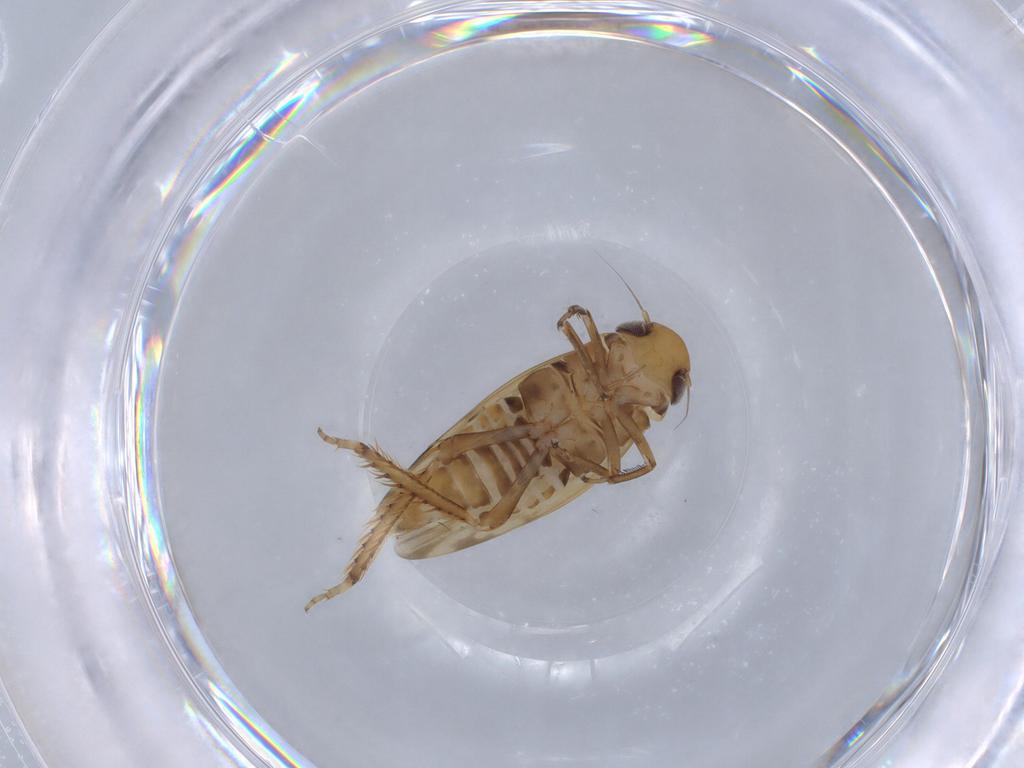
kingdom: Animalia
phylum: Arthropoda
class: Insecta
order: Hemiptera
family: Cicadellidae
